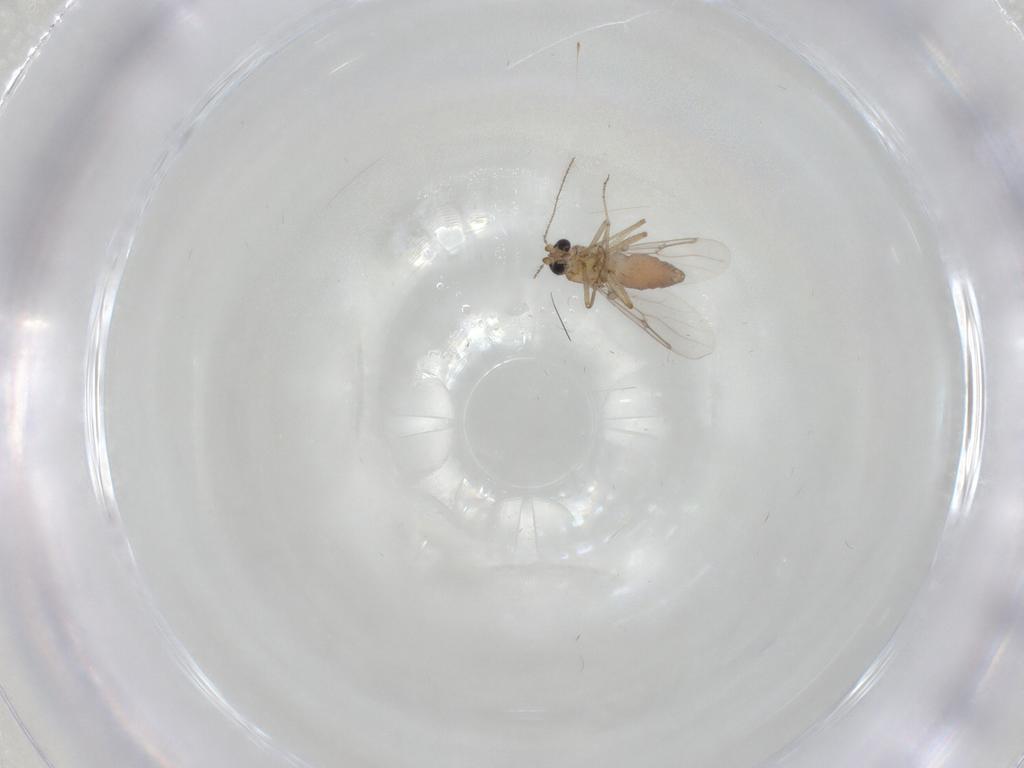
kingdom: Animalia
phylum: Arthropoda
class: Insecta
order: Diptera
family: Ceratopogonidae
